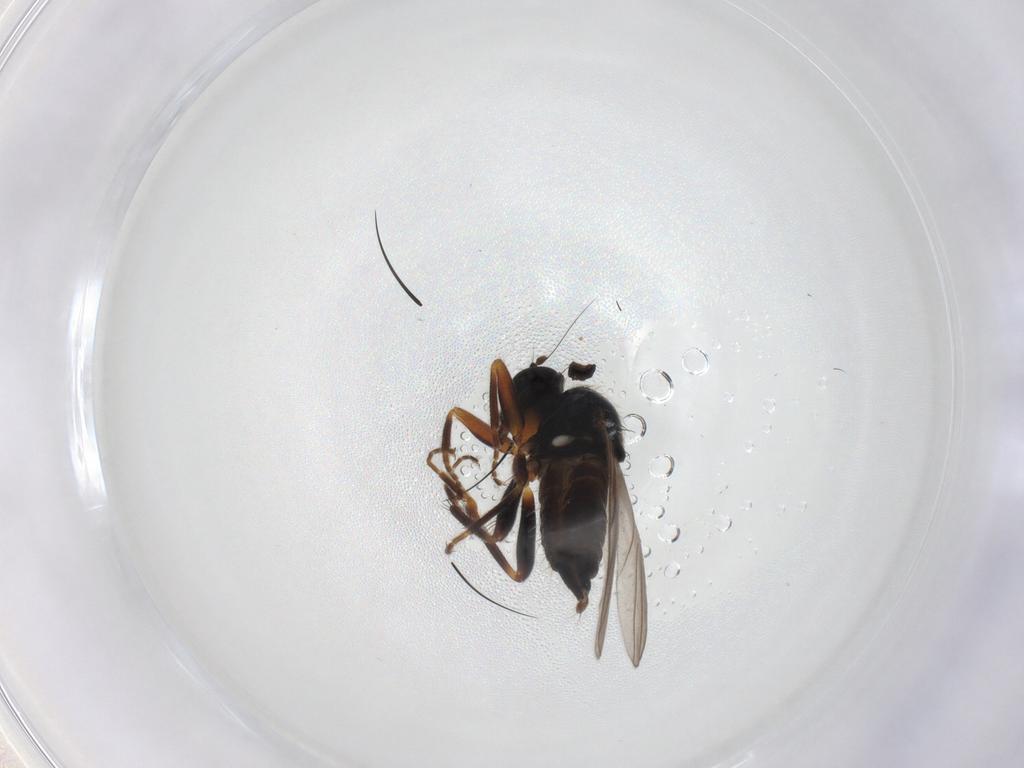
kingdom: Animalia
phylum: Arthropoda
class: Insecta
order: Diptera
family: Hybotidae
